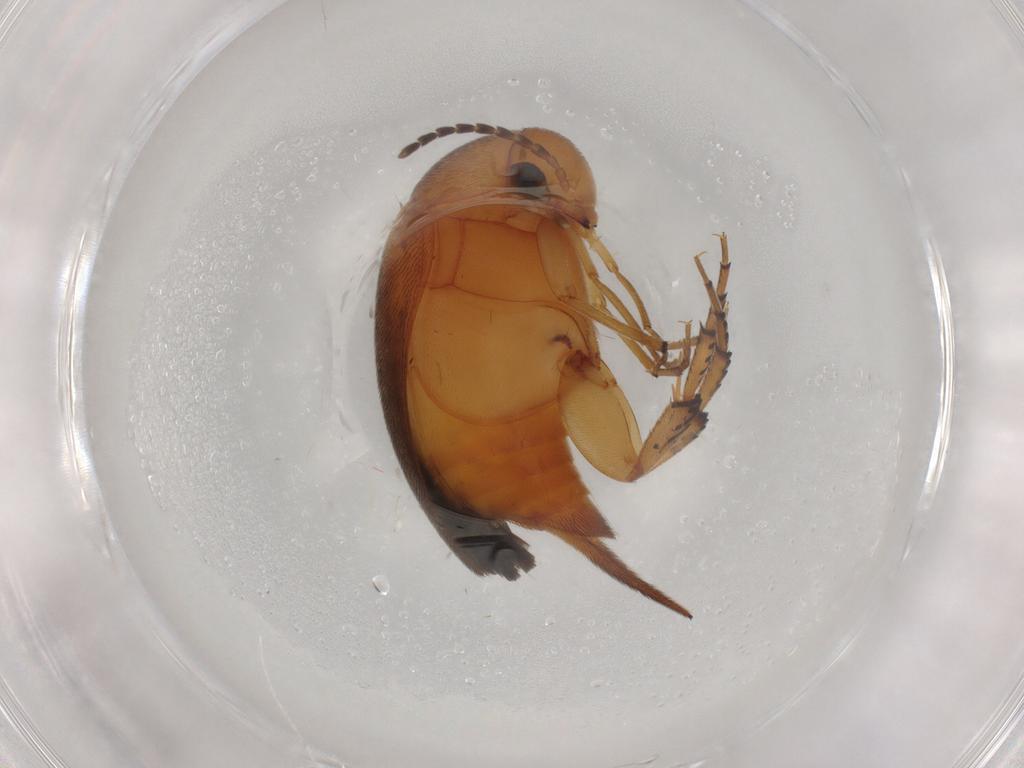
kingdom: Animalia
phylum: Arthropoda
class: Insecta
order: Coleoptera
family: Mordellidae
